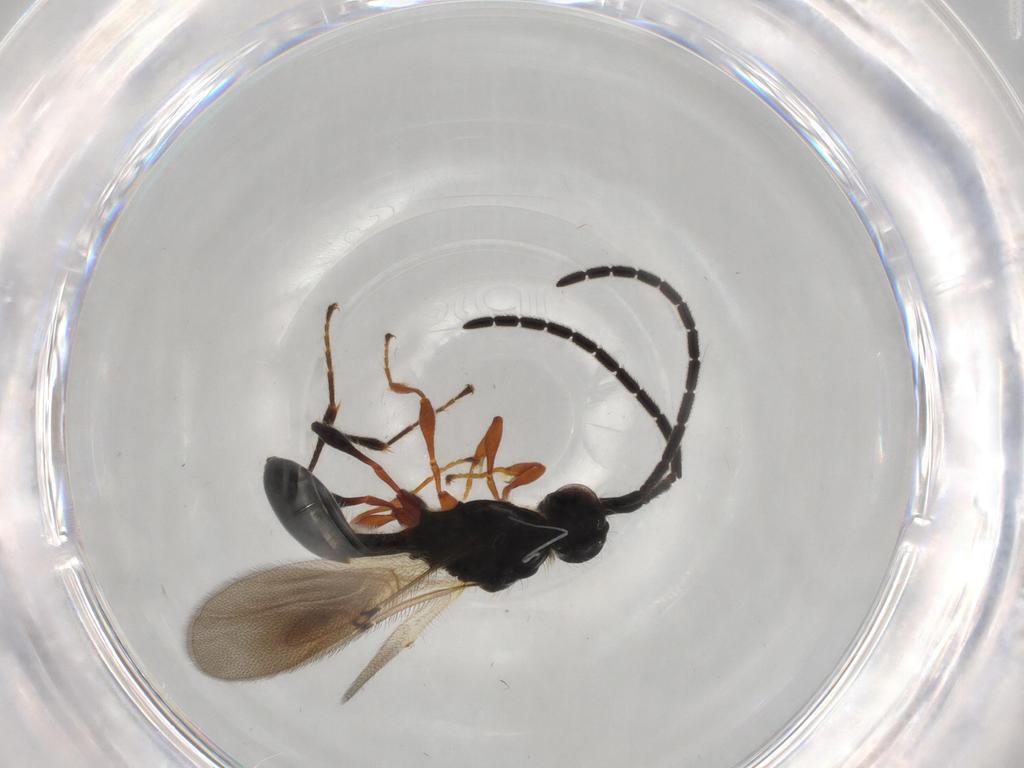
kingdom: Animalia
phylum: Arthropoda
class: Insecta
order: Hymenoptera
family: Diapriidae
